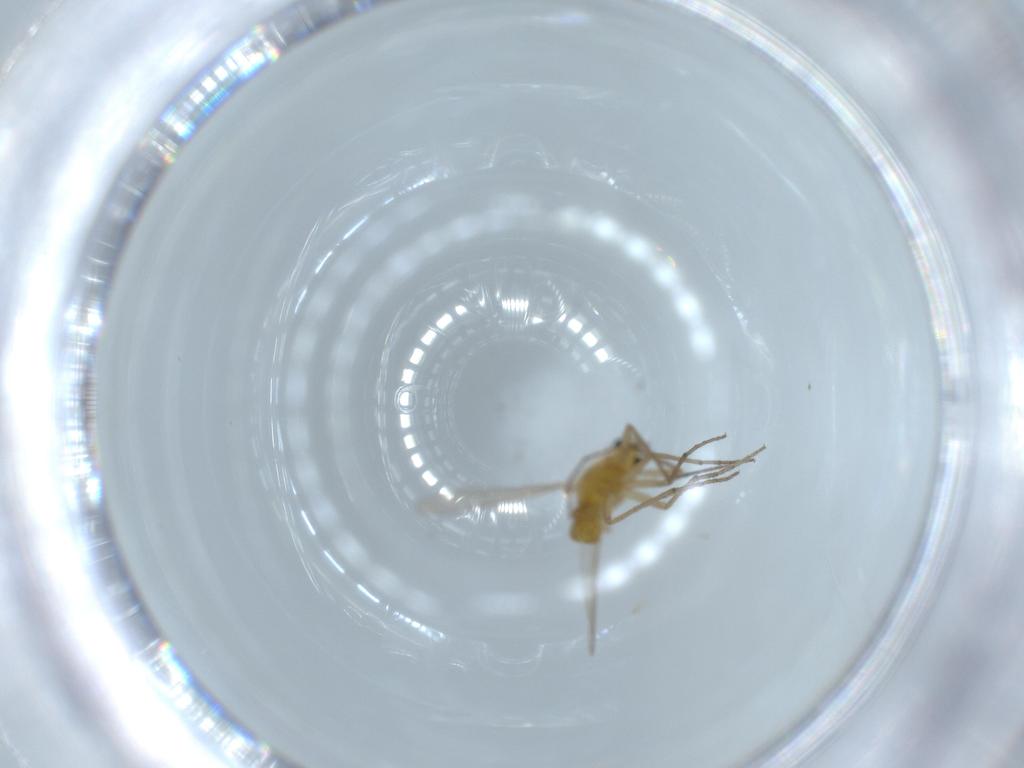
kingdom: Animalia
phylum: Arthropoda
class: Insecta
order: Diptera
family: Chironomidae
